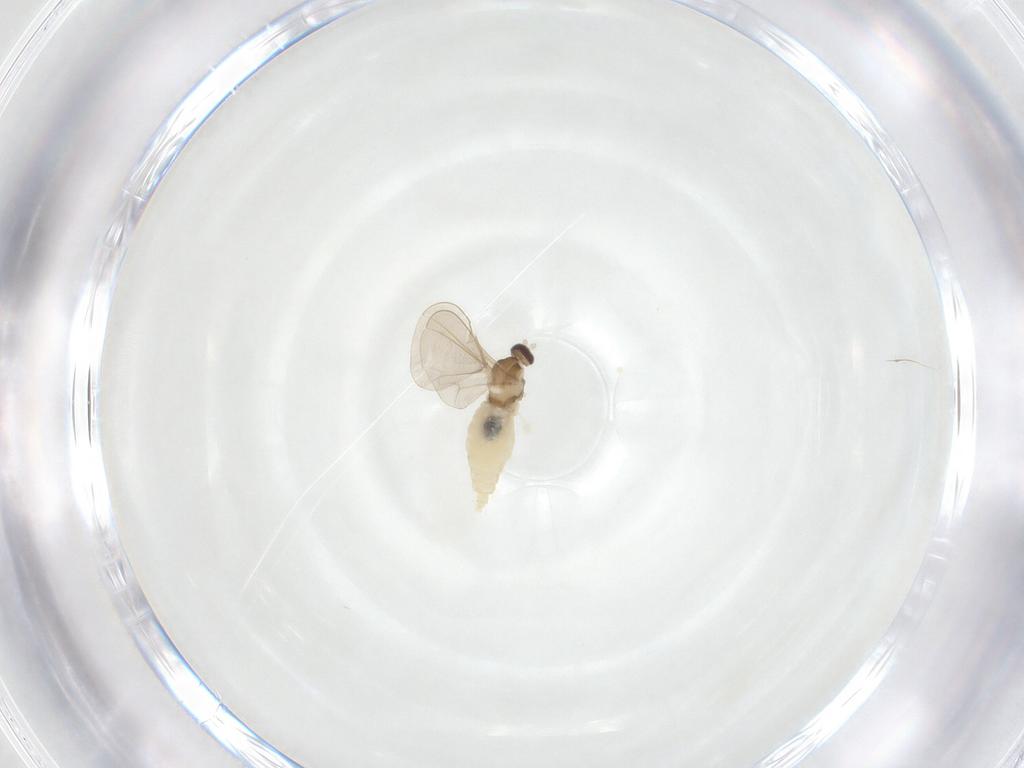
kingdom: Animalia
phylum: Arthropoda
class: Insecta
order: Diptera
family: Cecidomyiidae
